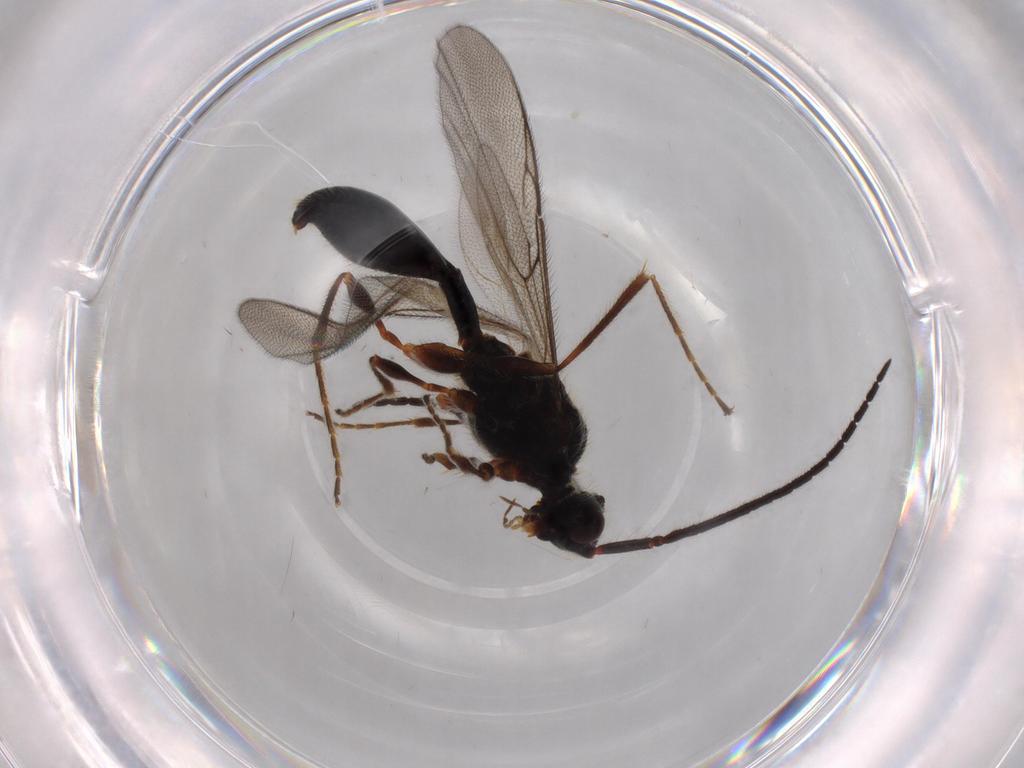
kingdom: Animalia
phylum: Arthropoda
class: Insecta
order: Hymenoptera
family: Diapriidae
